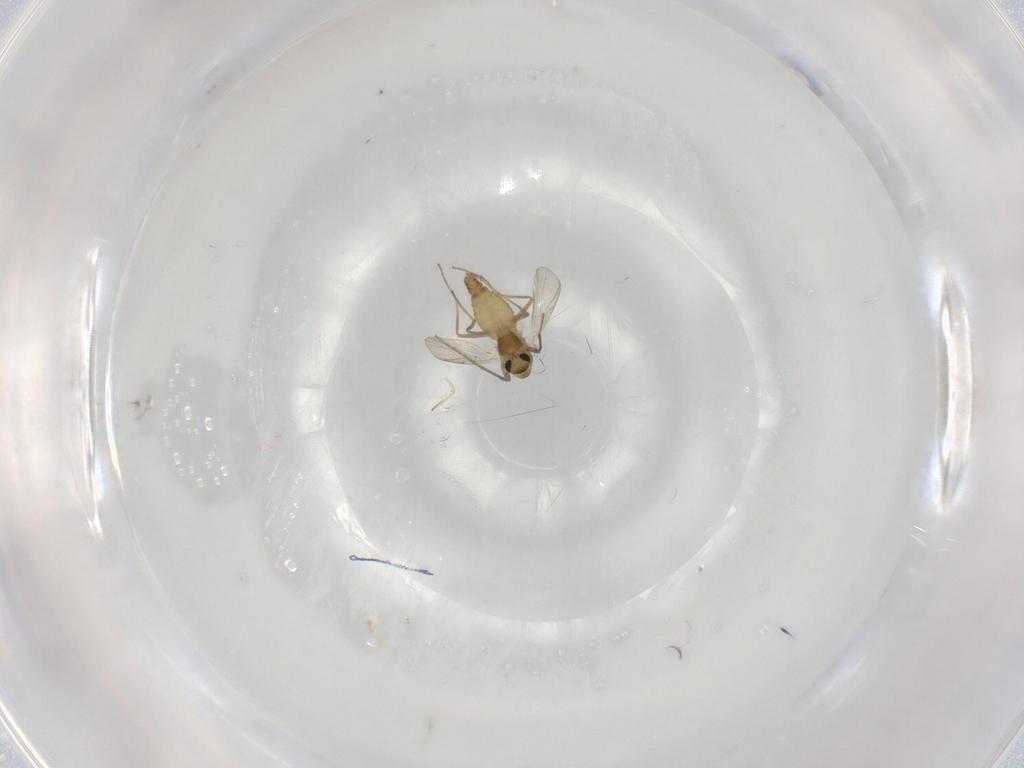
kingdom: Animalia
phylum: Arthropoda
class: Insecta
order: Diptera
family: Chironomidae
